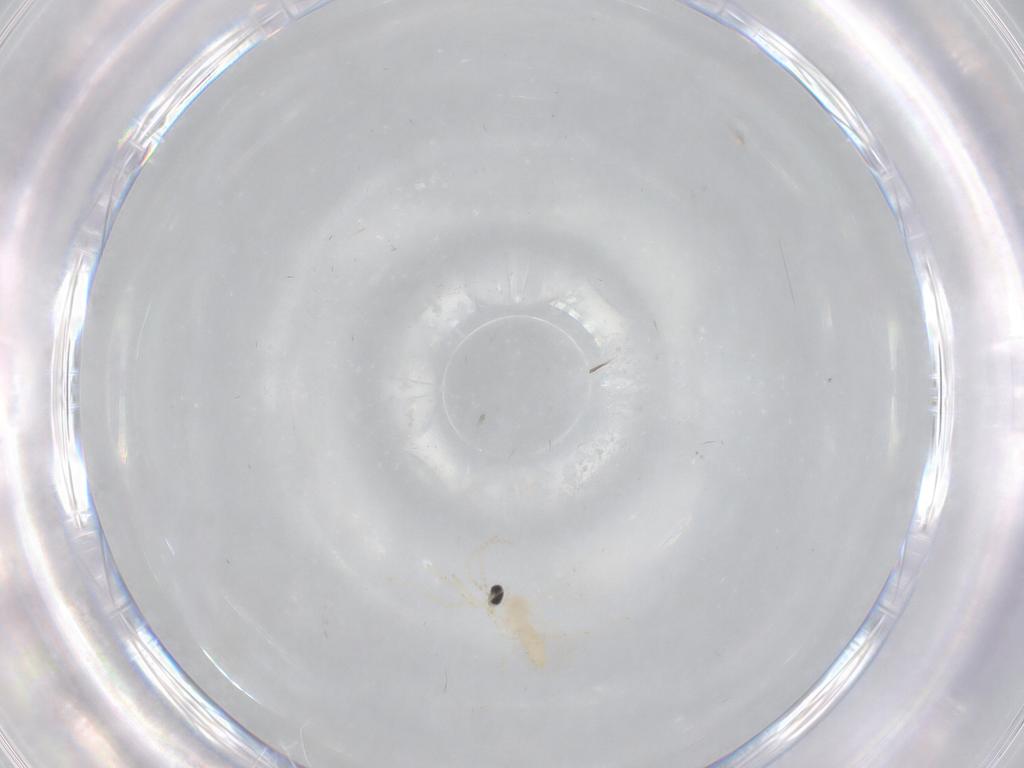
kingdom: Animalia
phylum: Arthropoda
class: Insecta
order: Diptera
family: Cecidomyiidae
